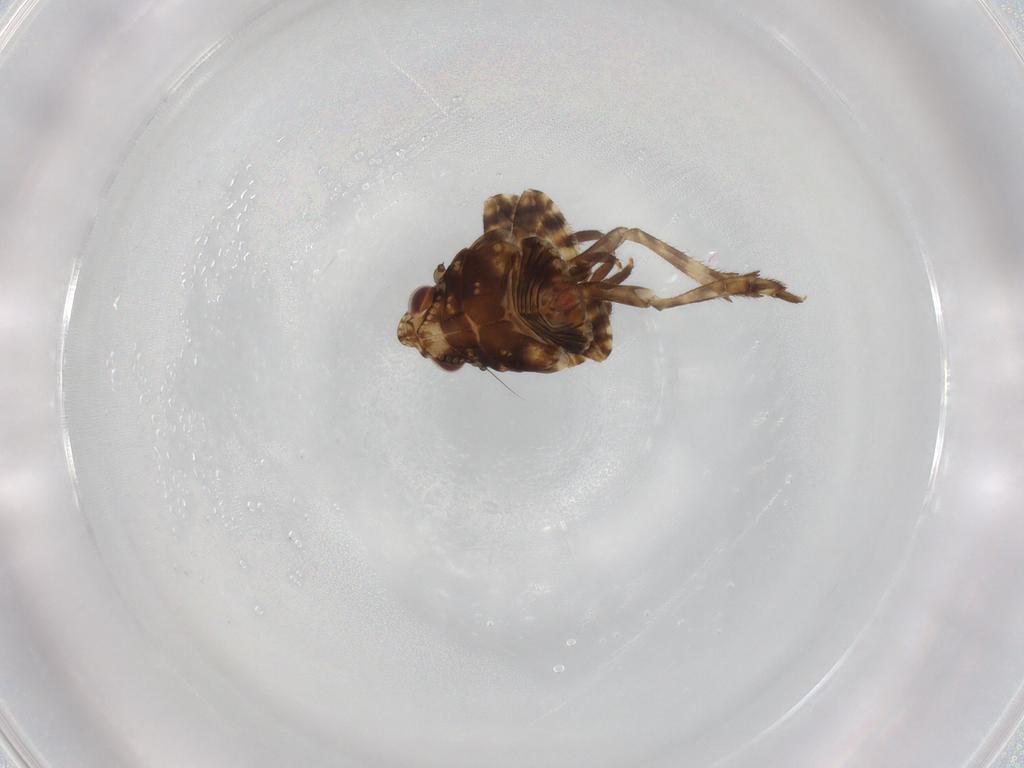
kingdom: Animalia
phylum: Arthropoda
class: Insecta
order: Hemiptera
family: Eurybrachidae
